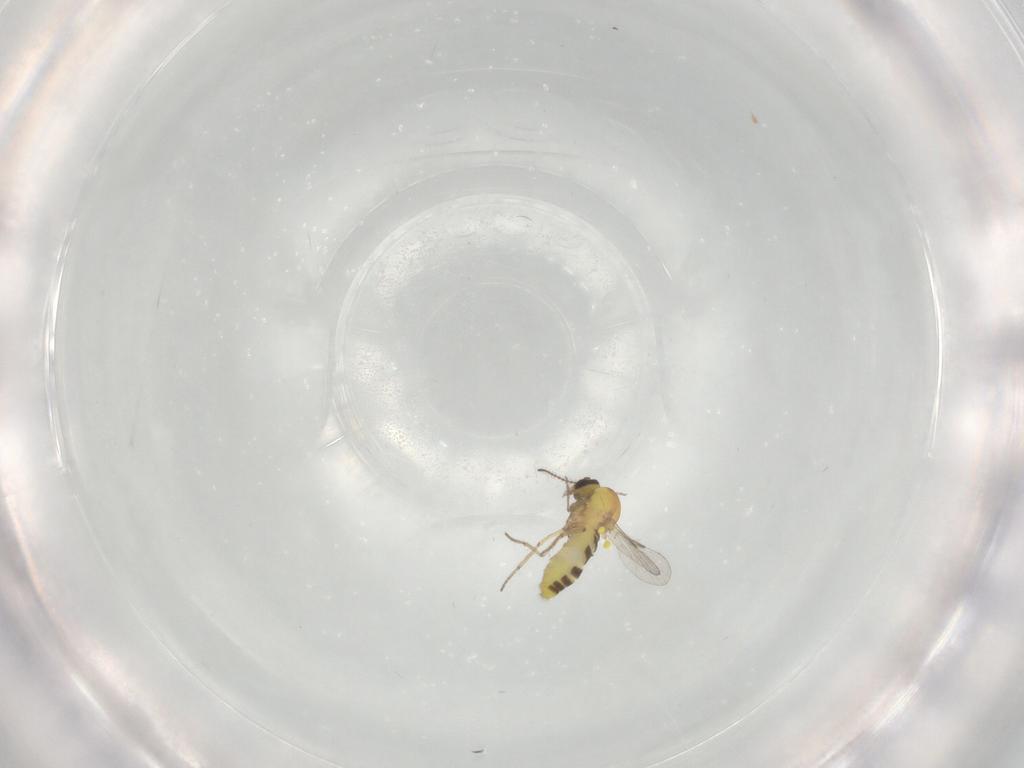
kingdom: Animalia
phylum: Arthropoda
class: Insecta
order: Diptera
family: Ceratopogonidae
